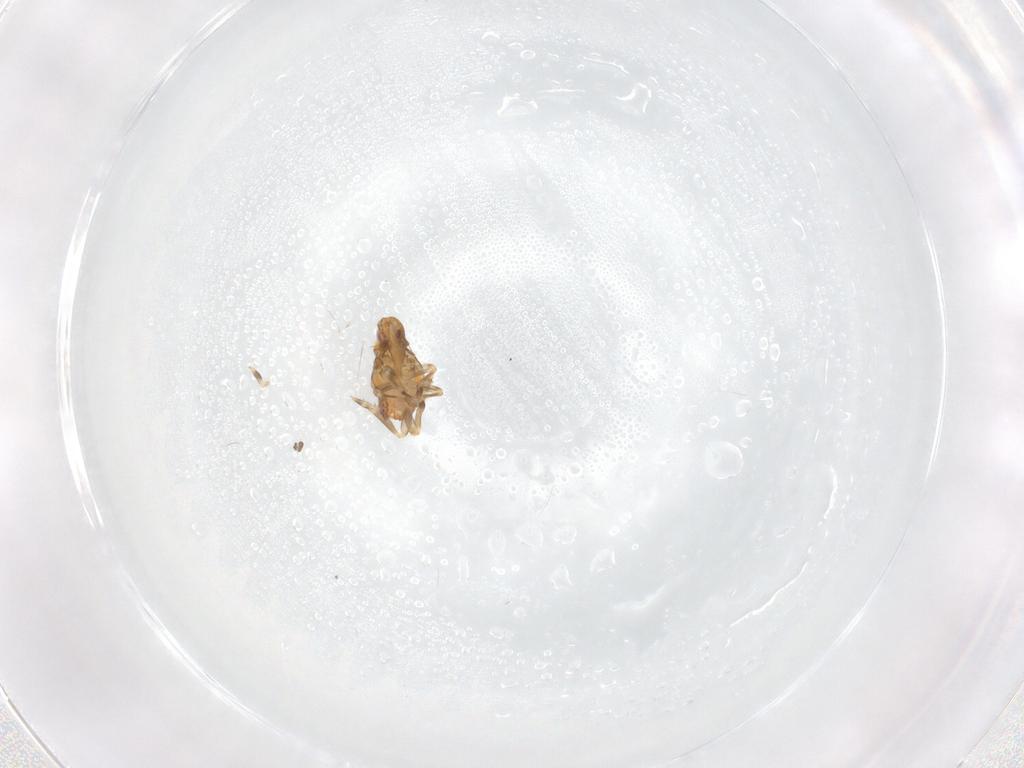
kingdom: Animalia
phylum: Arthropoda
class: Insecta
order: Hemiptera
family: Flatidae
